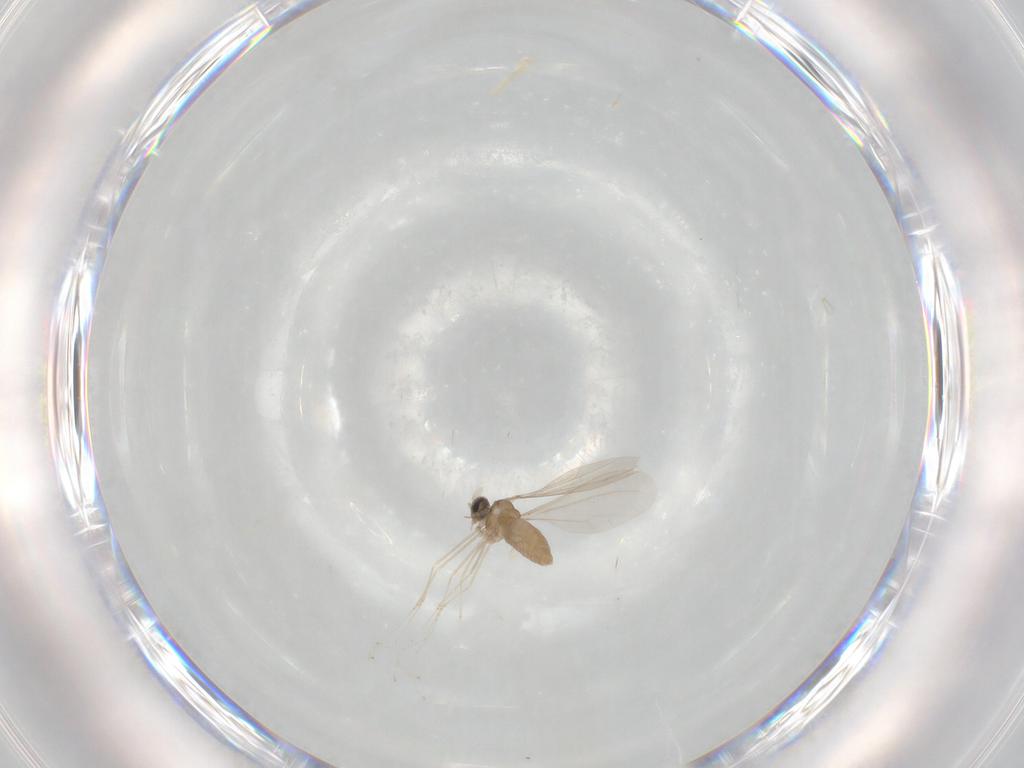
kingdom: Animalia
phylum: Arthropoda
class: Insecta
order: Diptera
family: Cecidomyiidae
